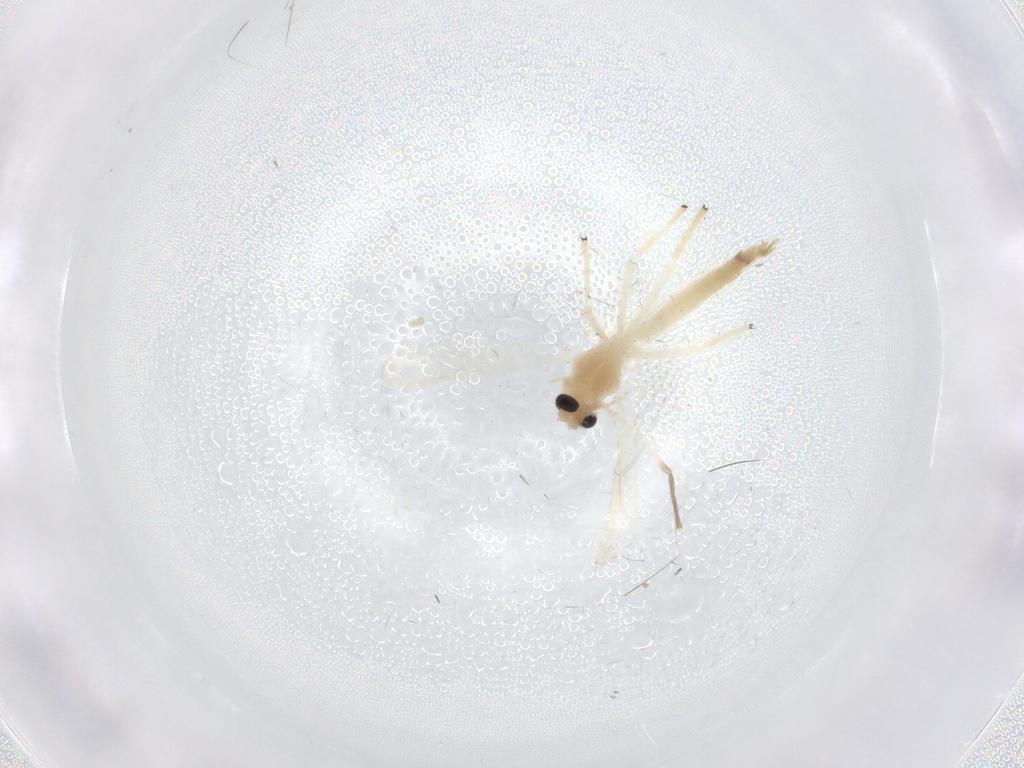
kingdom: Animalia
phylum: Arthropoda
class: Insecta
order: Diptera
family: Chironomidae
